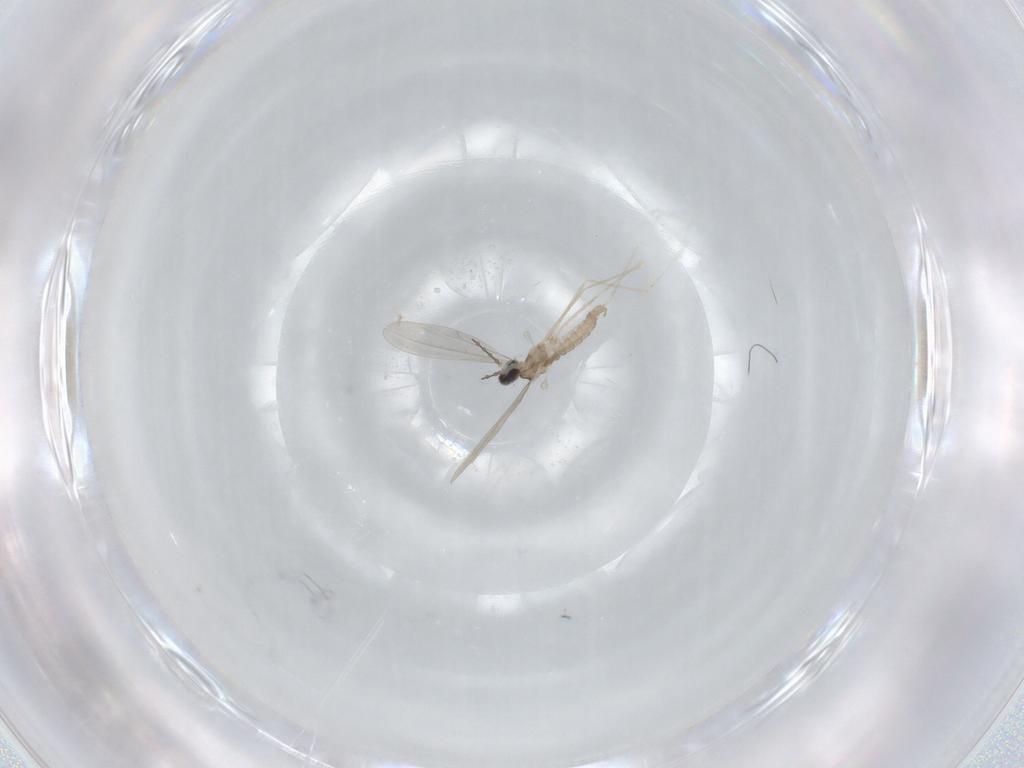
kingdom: Animalia
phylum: Arthropoda
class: Insecta
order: Diptera
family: Cecidomyiidae
